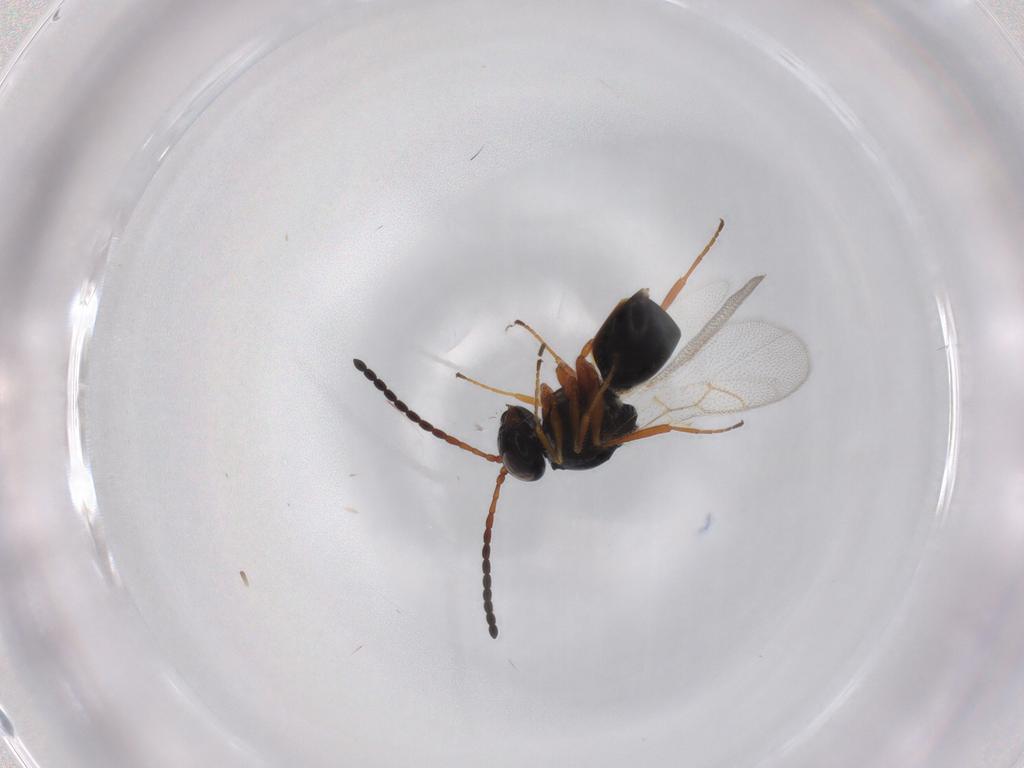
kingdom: Animalia
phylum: Arthropoda
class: Insecta
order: Hymenoptera
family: Figitidae
